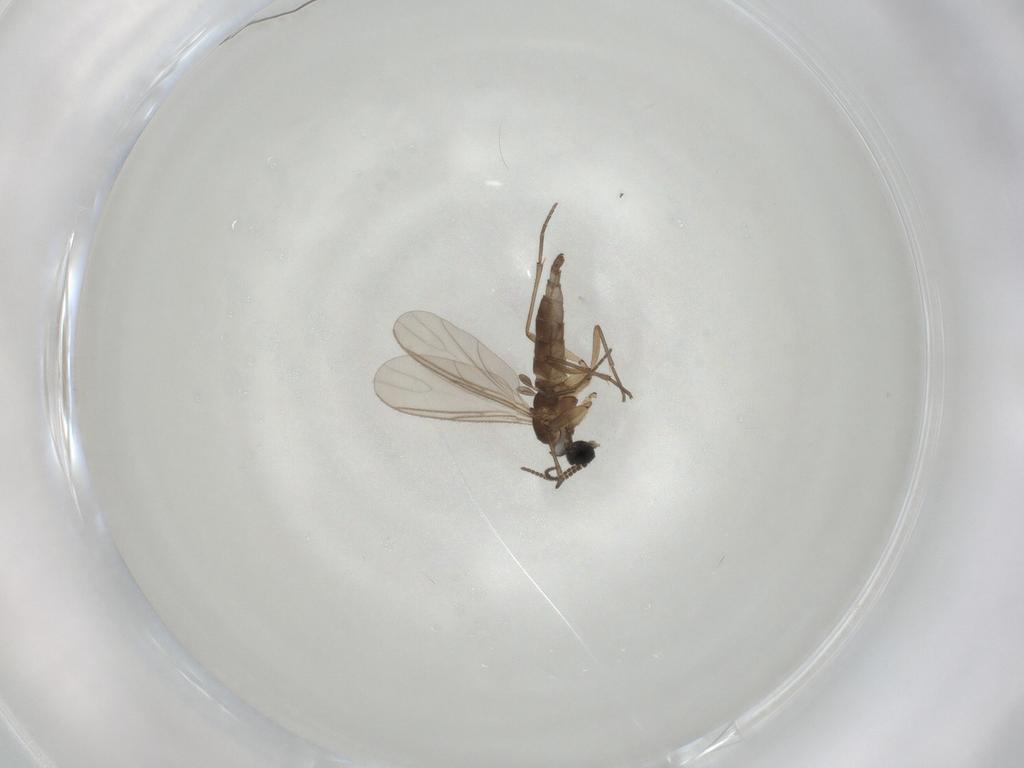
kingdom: Animalia
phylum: Arthropoda
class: Insecta
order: Diptera
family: Sciaridae
